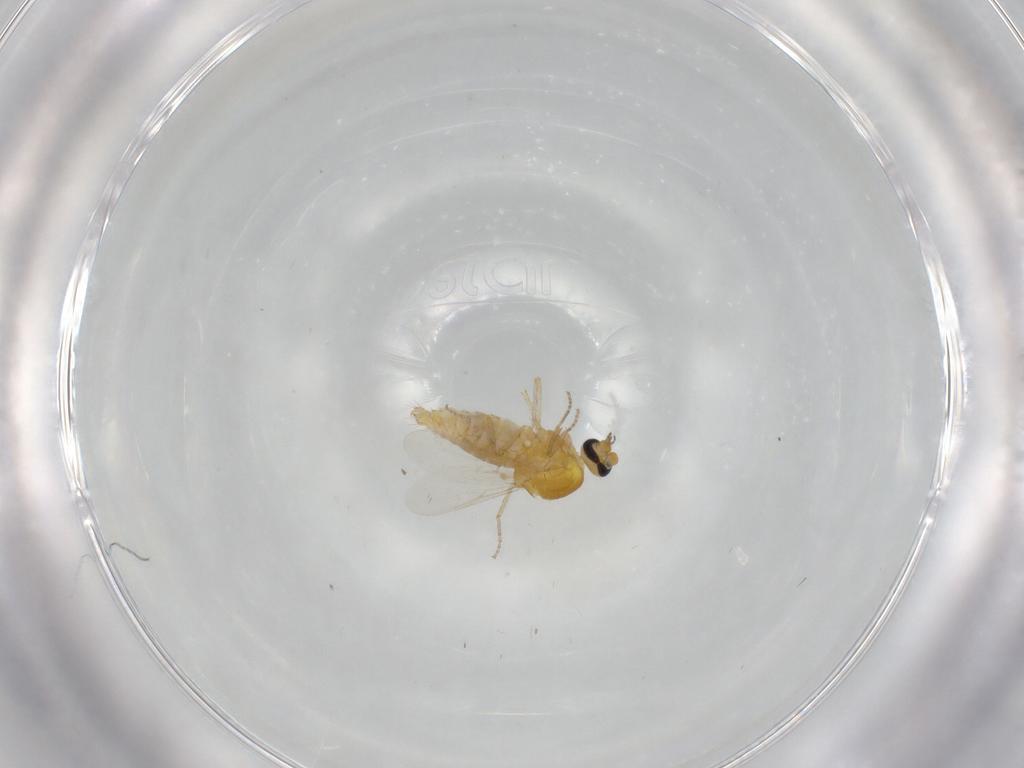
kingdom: Animalia
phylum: Arthropoda
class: Insecta
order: Diptera
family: Ceratopogonidae
